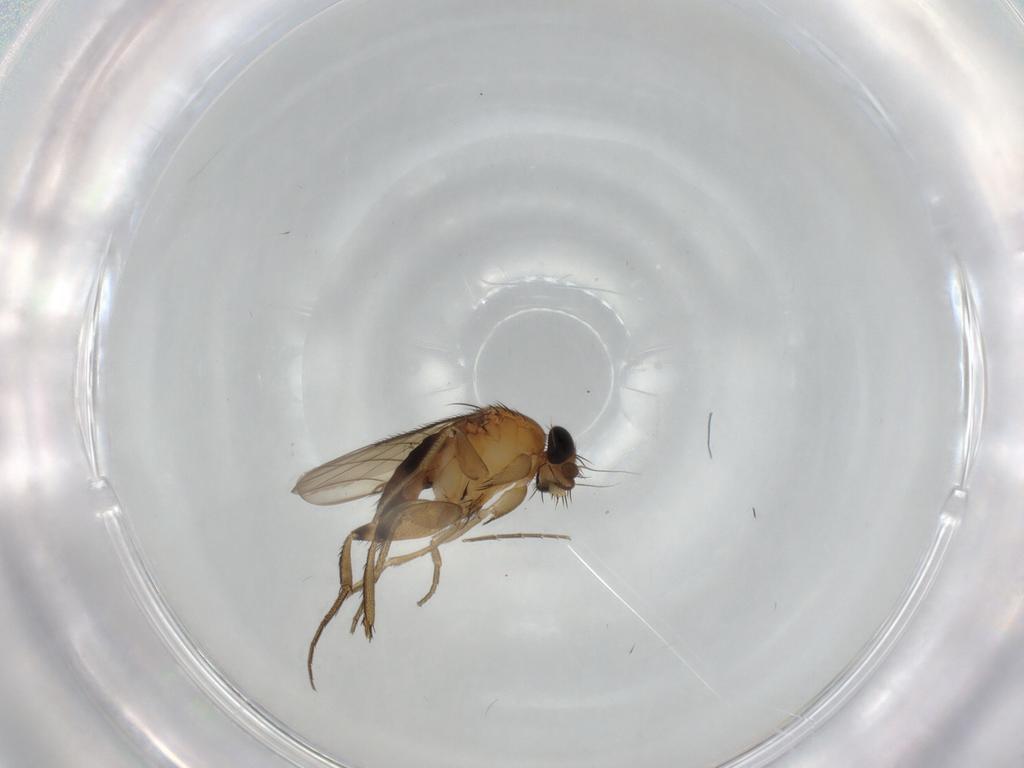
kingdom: Animalia
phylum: Arthropoda
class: Insecta
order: Diptera
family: Phoridae
